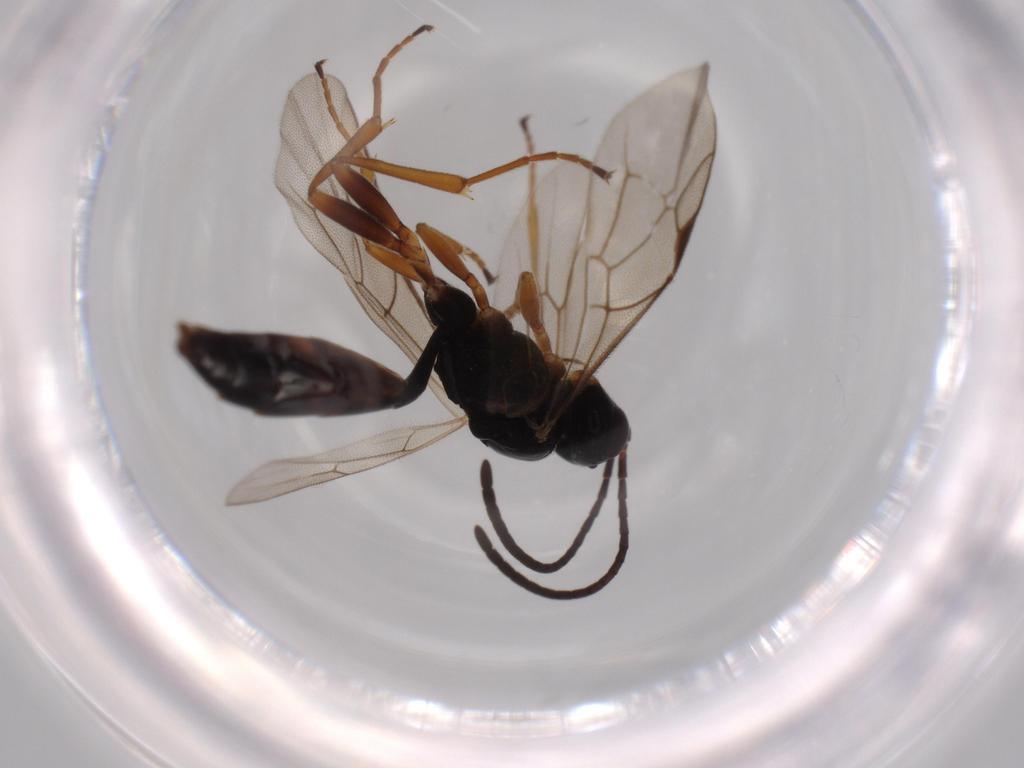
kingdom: Animalia
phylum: Arthropoda
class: Insecta
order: Hymenoptera
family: Ichneumonidae
